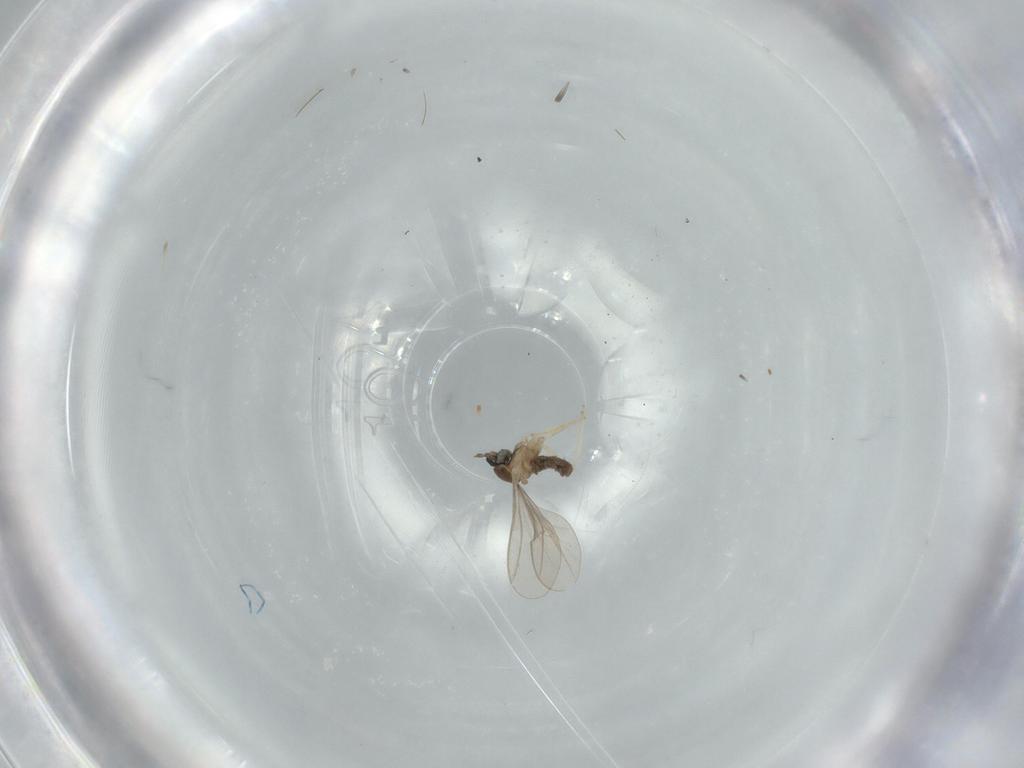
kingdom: Animalia
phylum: Arthropoda
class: Insecta
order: Diptera
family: Cecidomyiidae
